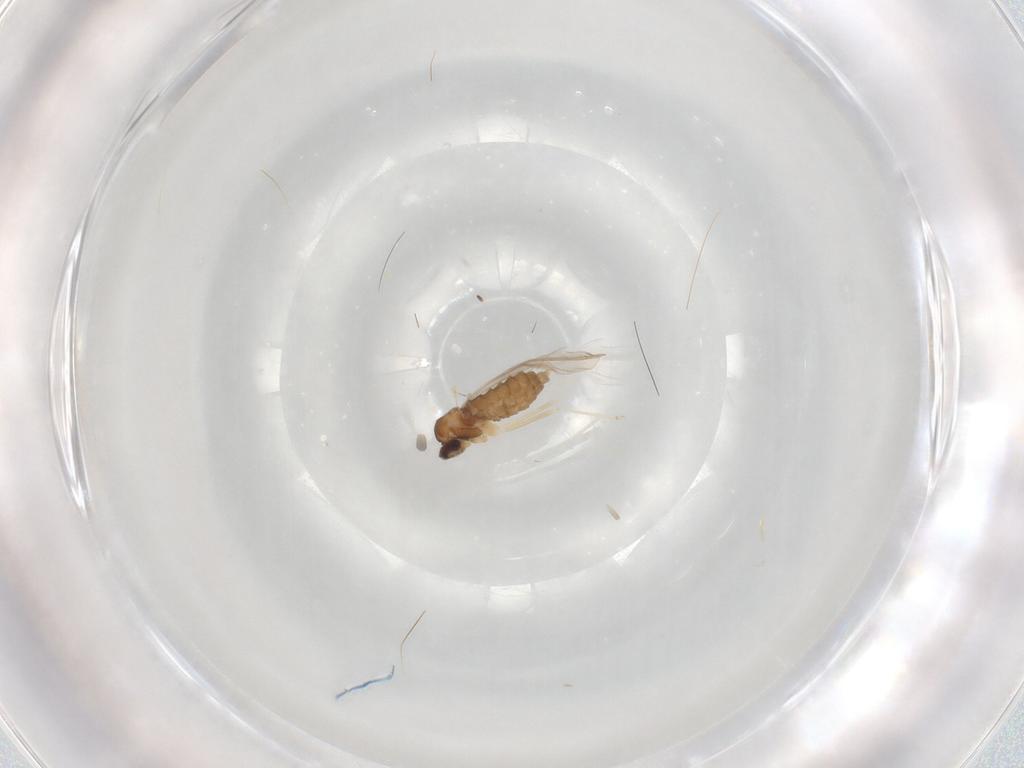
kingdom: Animalia
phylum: Arthropoda
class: Insecta
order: Diptera
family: Cecidomyiidae
